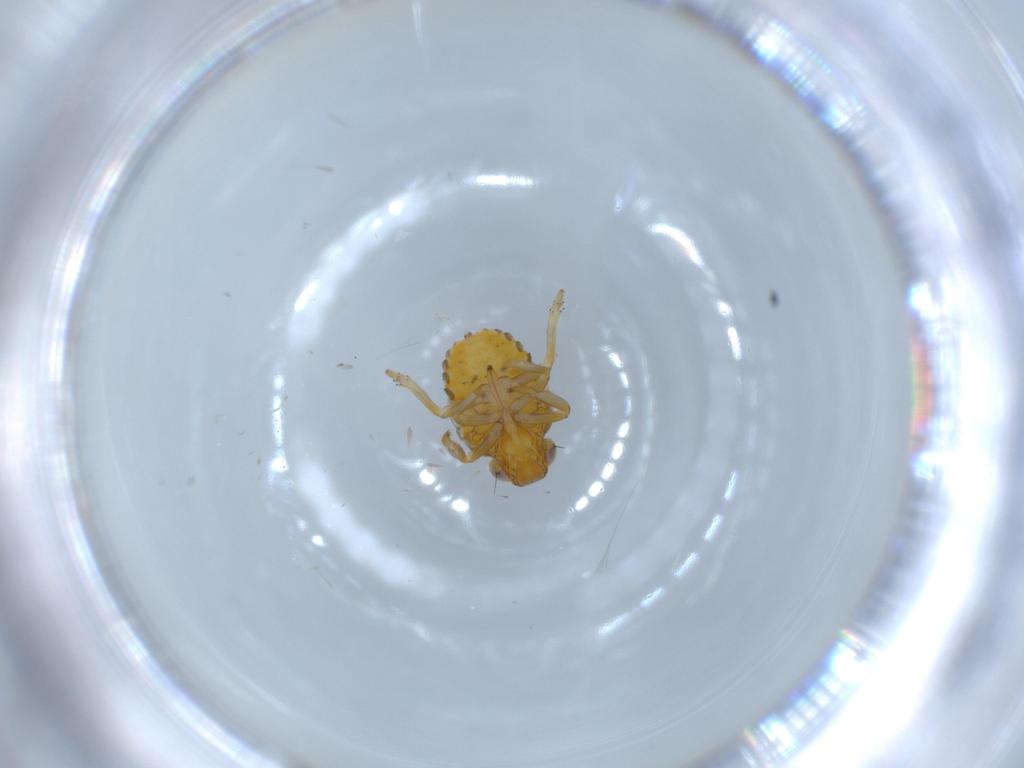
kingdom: Animalia
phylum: Arthropoda
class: Insecta
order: Hemiptera
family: Issidae
